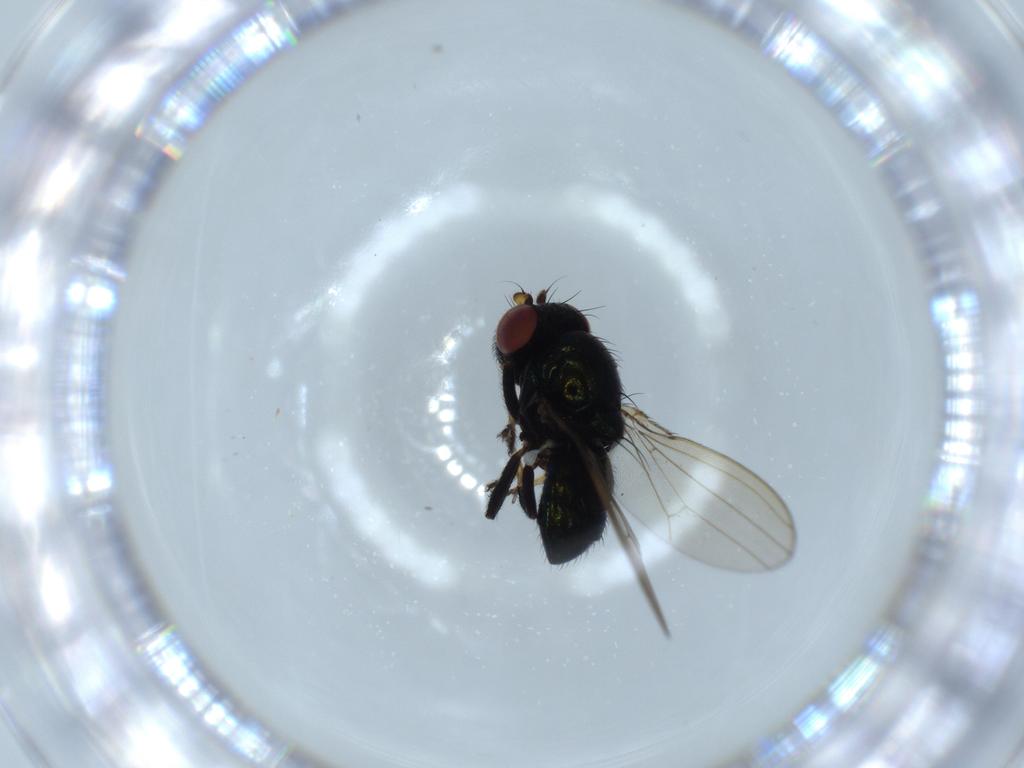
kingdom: Animalia
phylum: Arthropoda
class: Insecta
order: Diptera
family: Ephydridae
